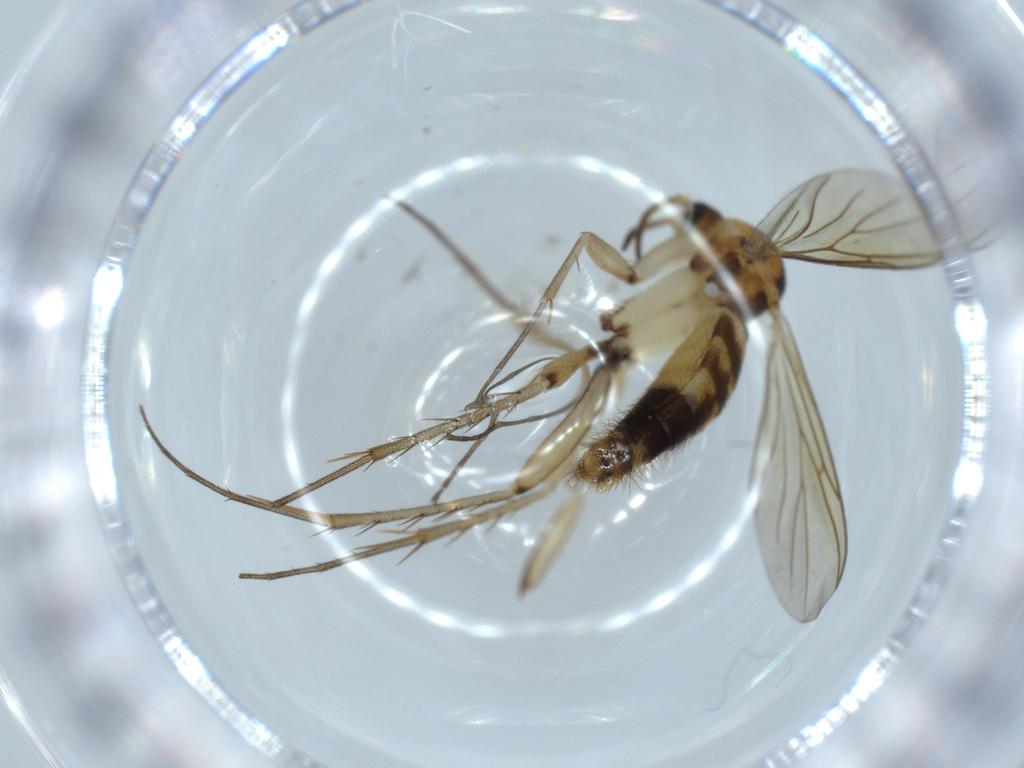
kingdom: Animalia
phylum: Arthropoda
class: Insecta
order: Diptera
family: Mycetophilidae
